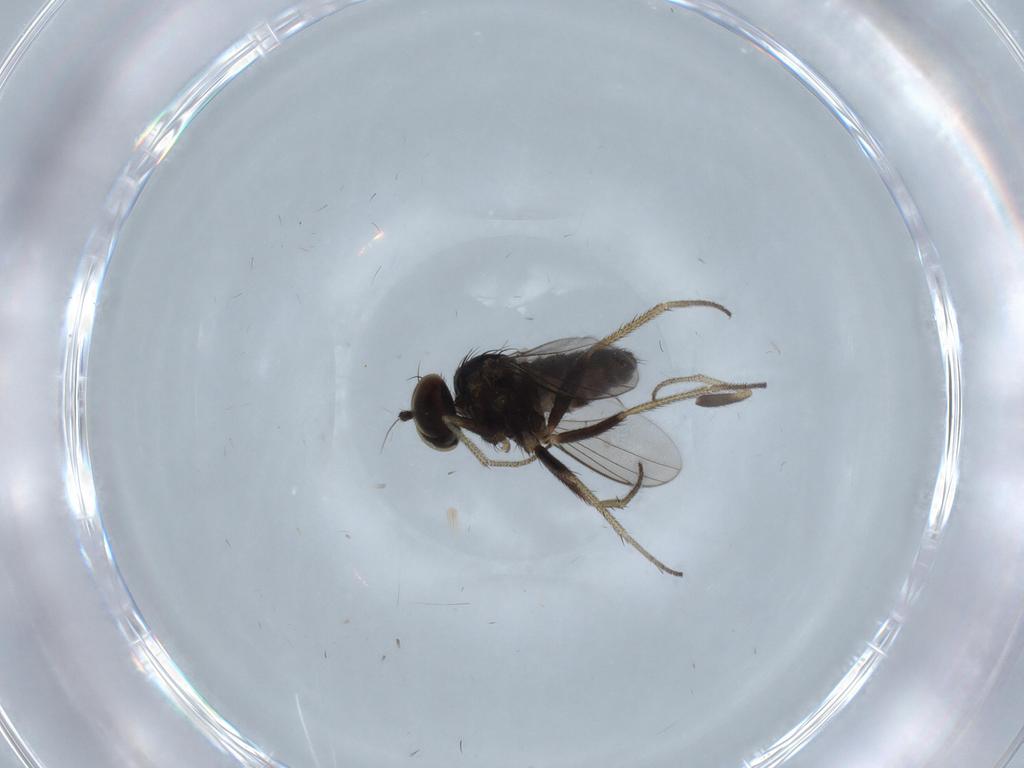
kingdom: Animalia
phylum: Arthropoda
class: Insecta
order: Diptera
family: Dolichopodidae
